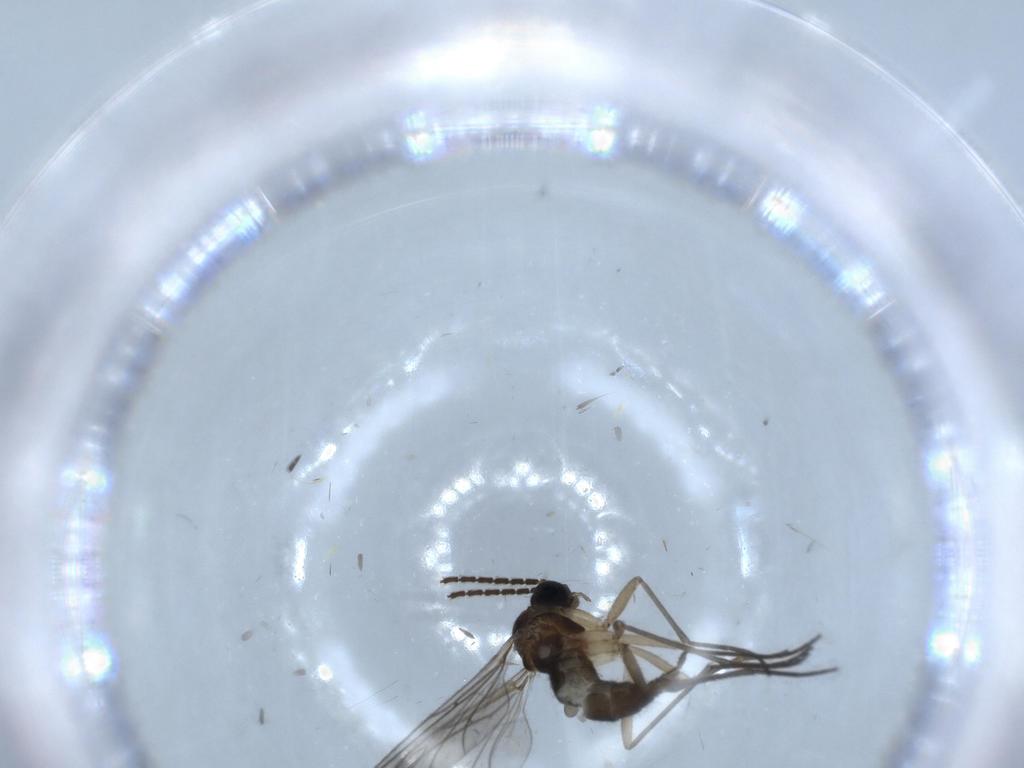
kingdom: Animalia
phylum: Arthropoda
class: Insecta
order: Diptera
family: Sciaridae
